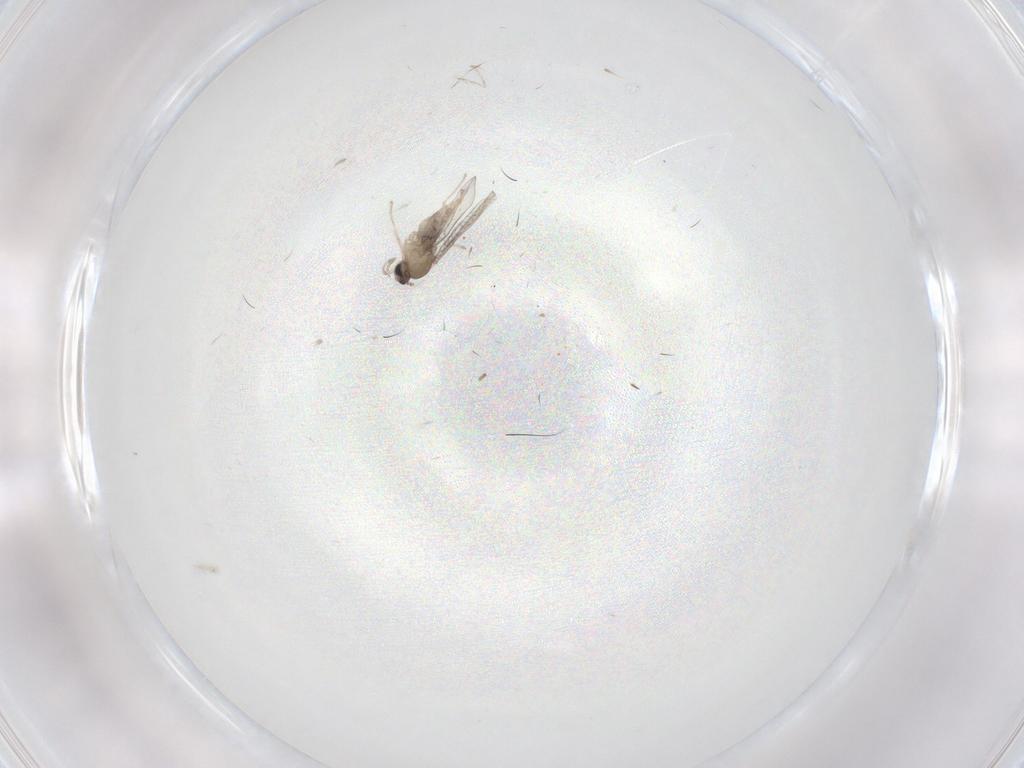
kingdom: Animalia
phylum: Arthropoda
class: Insecta
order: Diptera
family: Cecidomyiidae
